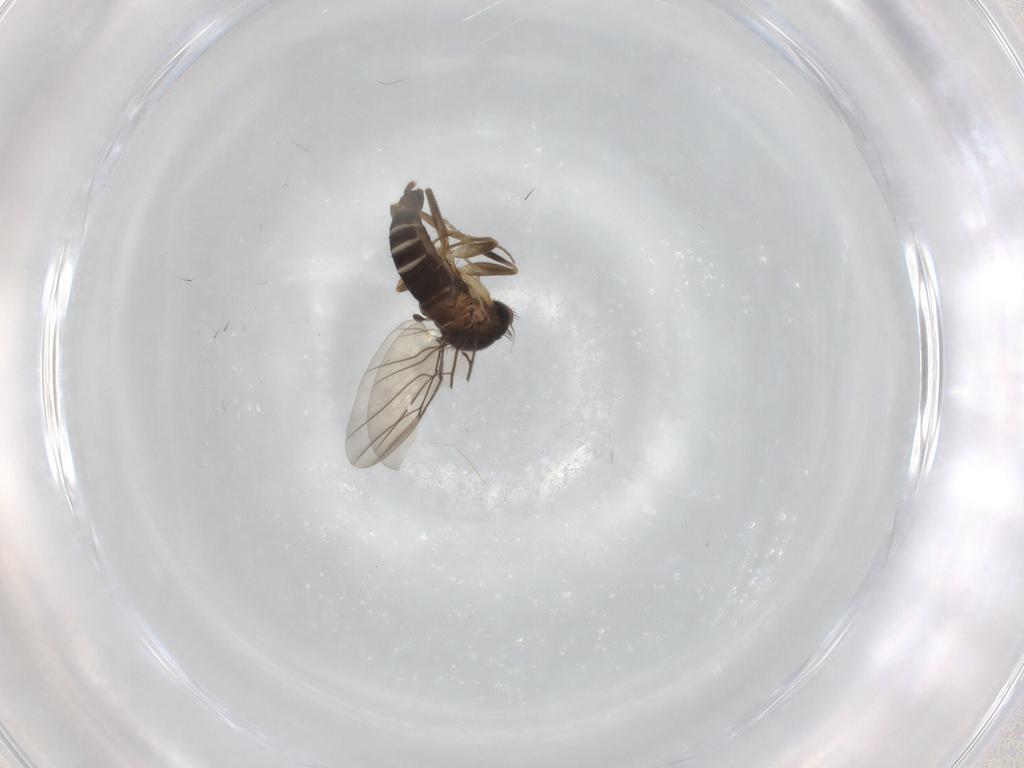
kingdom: Animalia
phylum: Arthropoda
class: Insecta
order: Diptera
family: Phoridae
